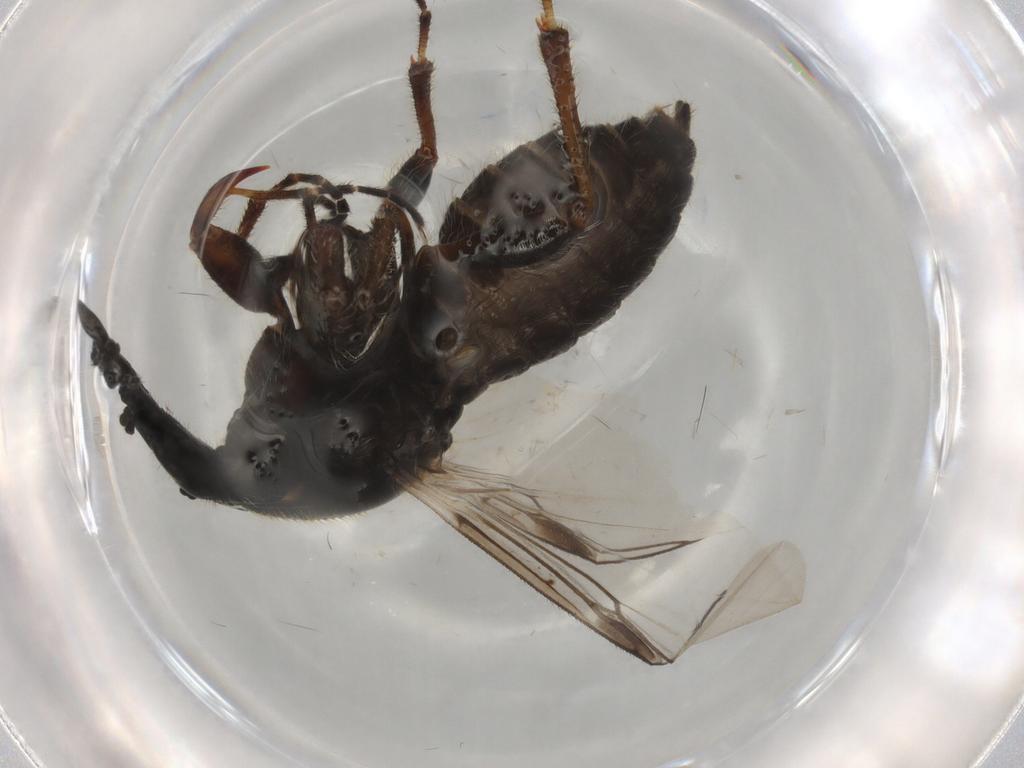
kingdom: Animalia
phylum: Arthropoda
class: Insecta
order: Diptera
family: Bibionidae
